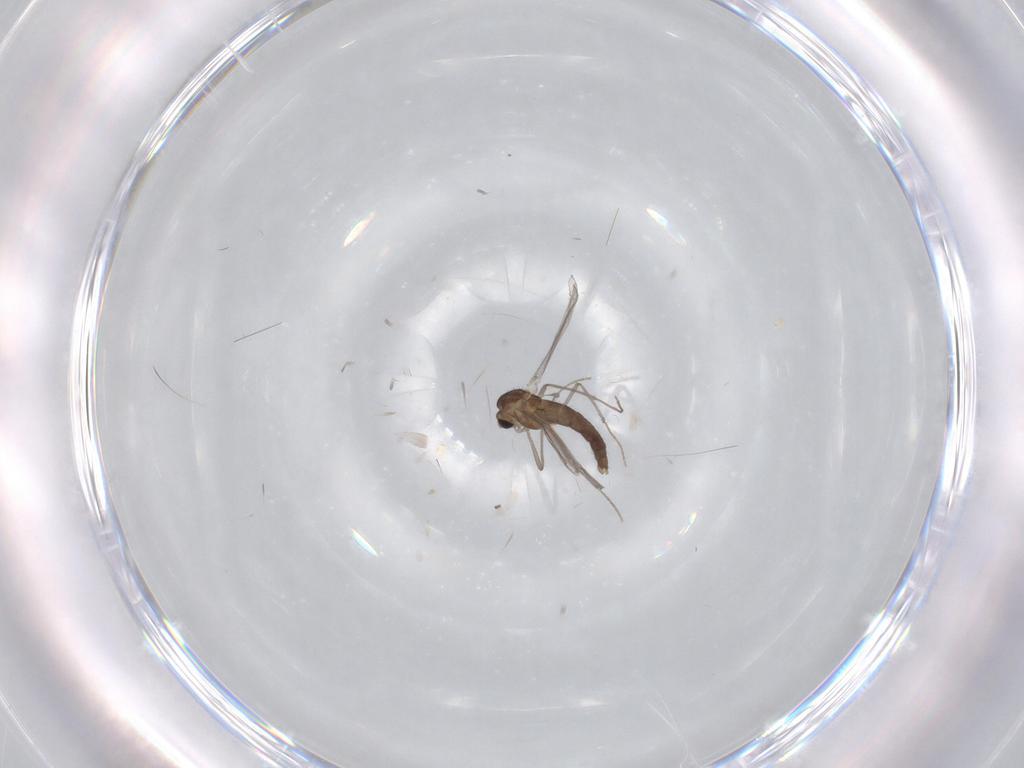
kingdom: Animalia
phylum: Arthropoda
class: Insecta
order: Diptera
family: Chironomidae
